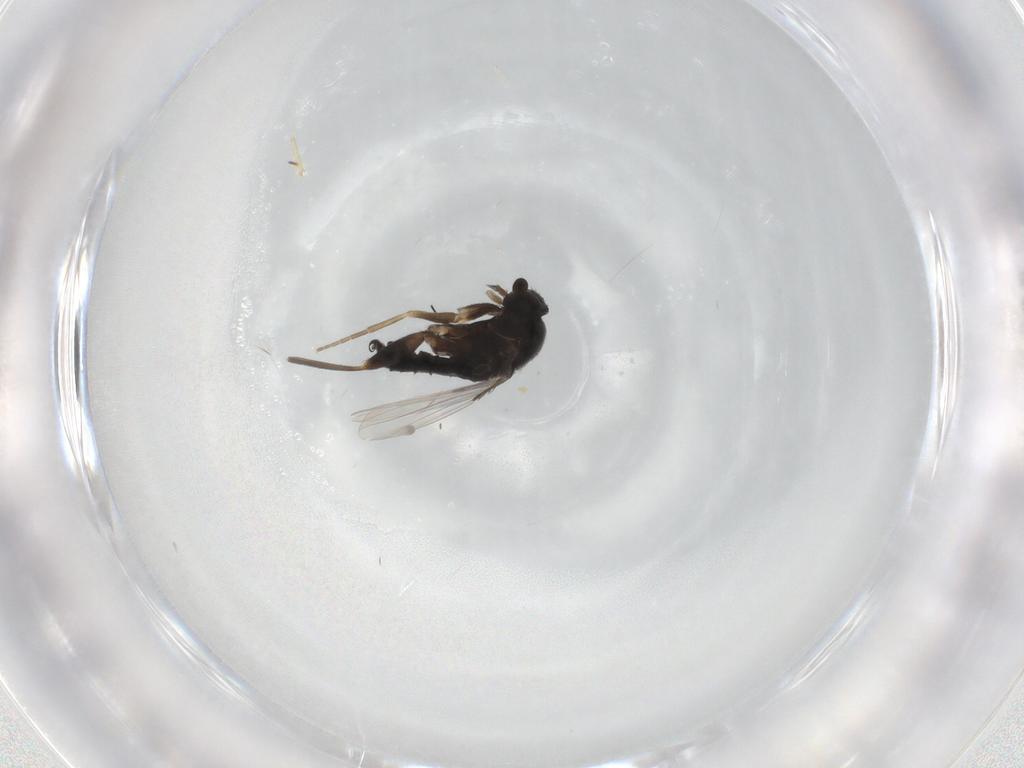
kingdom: Animalia
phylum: Arthropoda
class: Insecta
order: Diptera
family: Phoridae
